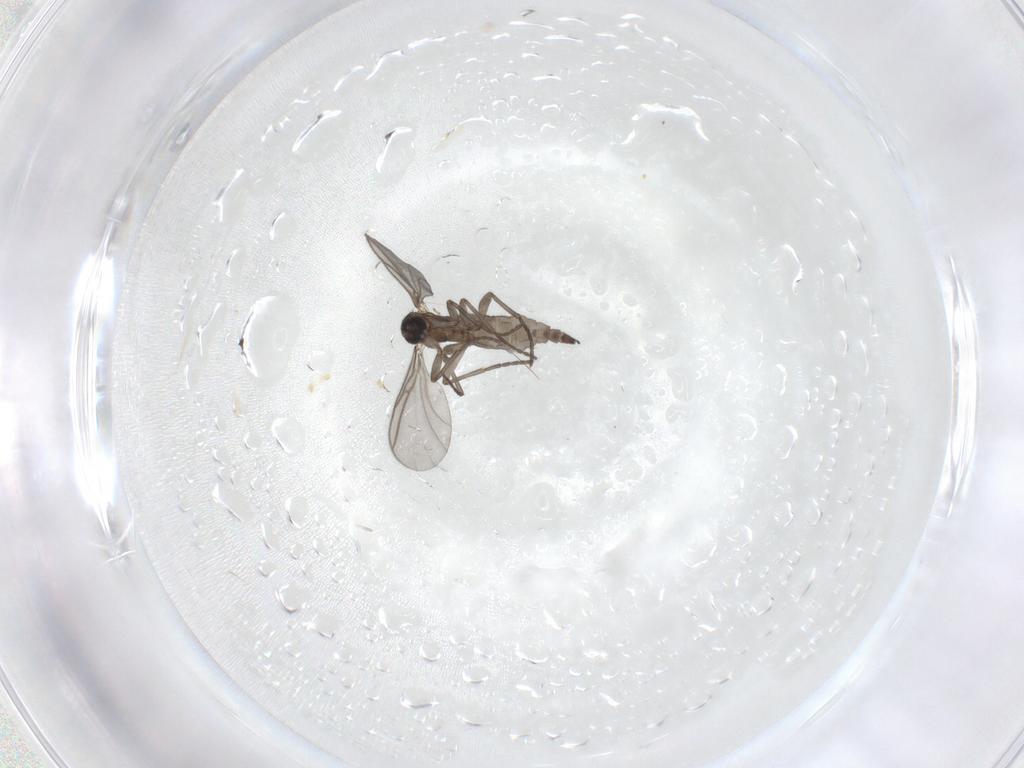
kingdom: Animalia
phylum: Arthropoda
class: Insecta
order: Diptera
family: Sciaridae
